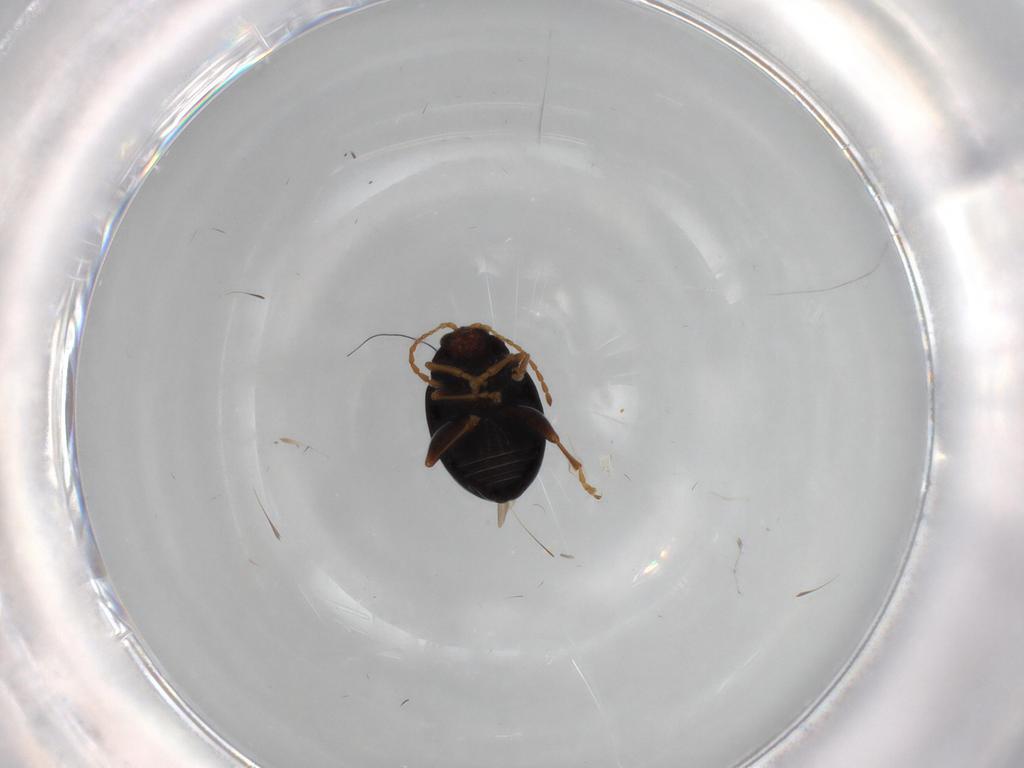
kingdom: Animalia
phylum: Arthropoda
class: Insecta
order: Coleoptera
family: Chrysomelidae
